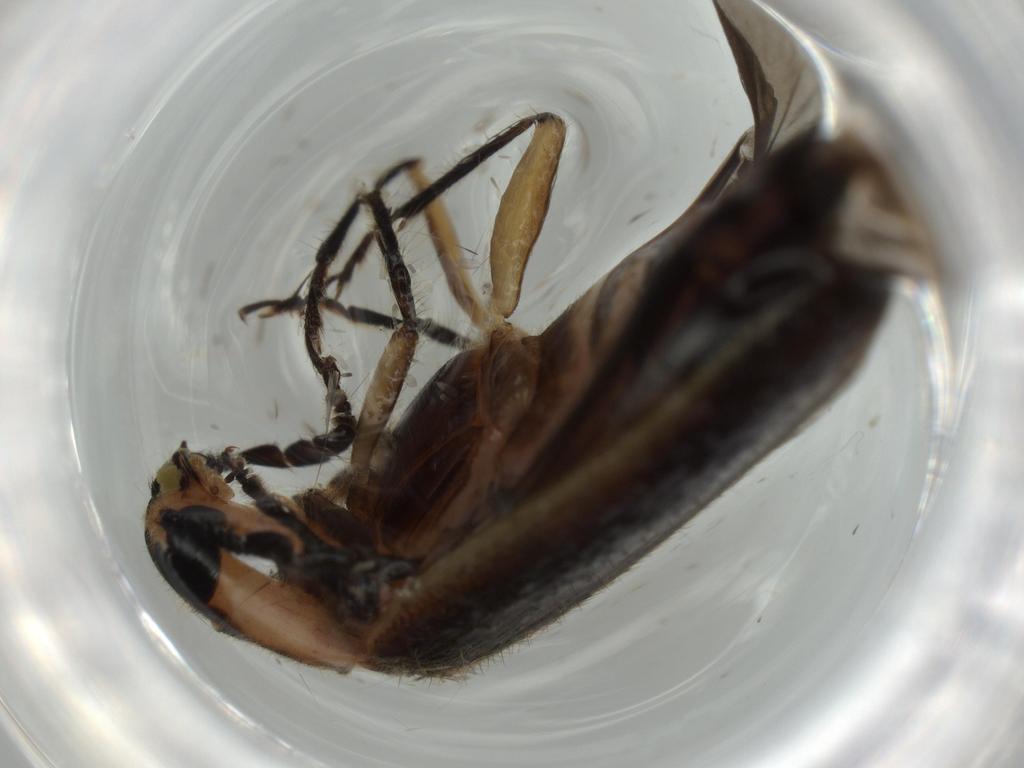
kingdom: Animalia
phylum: Arthropoda
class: Insecta
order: Coleoptera
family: Cleridae
